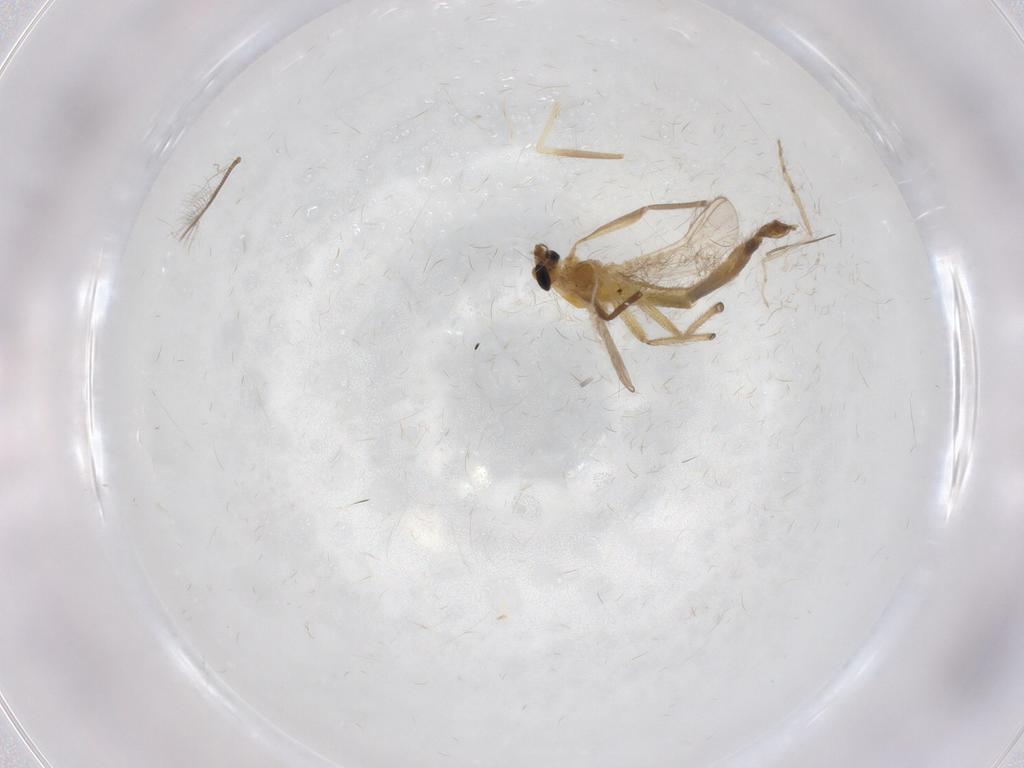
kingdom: Animalia
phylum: Arthropoda
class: Insecta
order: Diptera
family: Chironomidae
